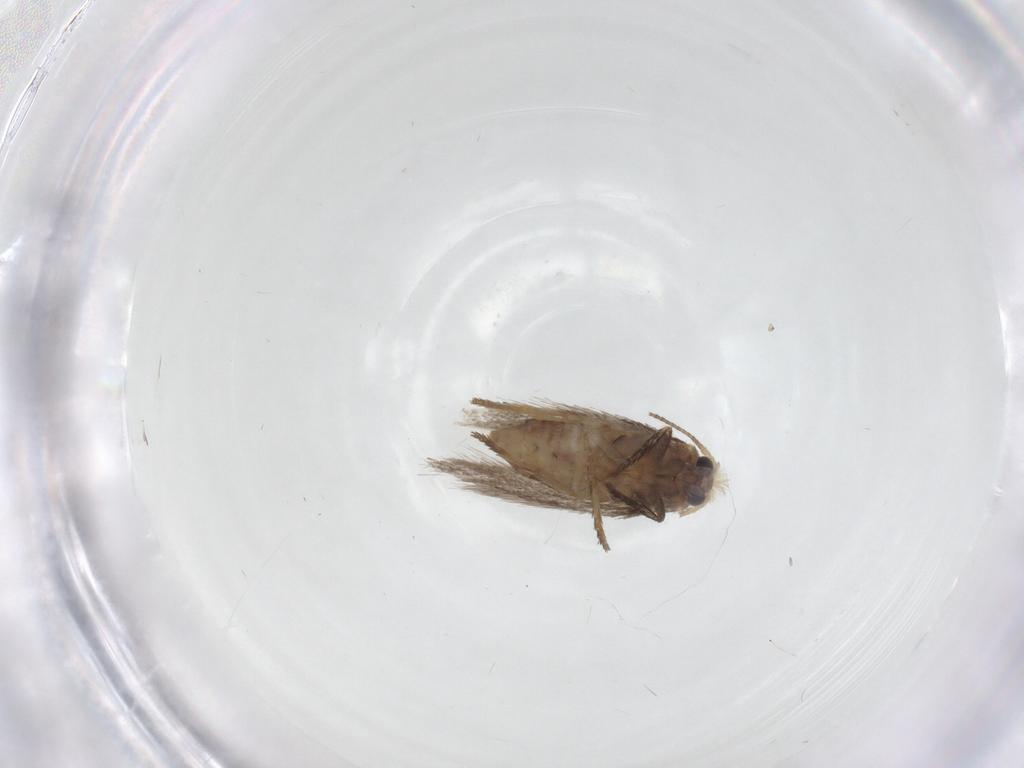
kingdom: Animalia
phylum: Arthropoda
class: Insecta
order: Lepidoptera
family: Nepticulidae
